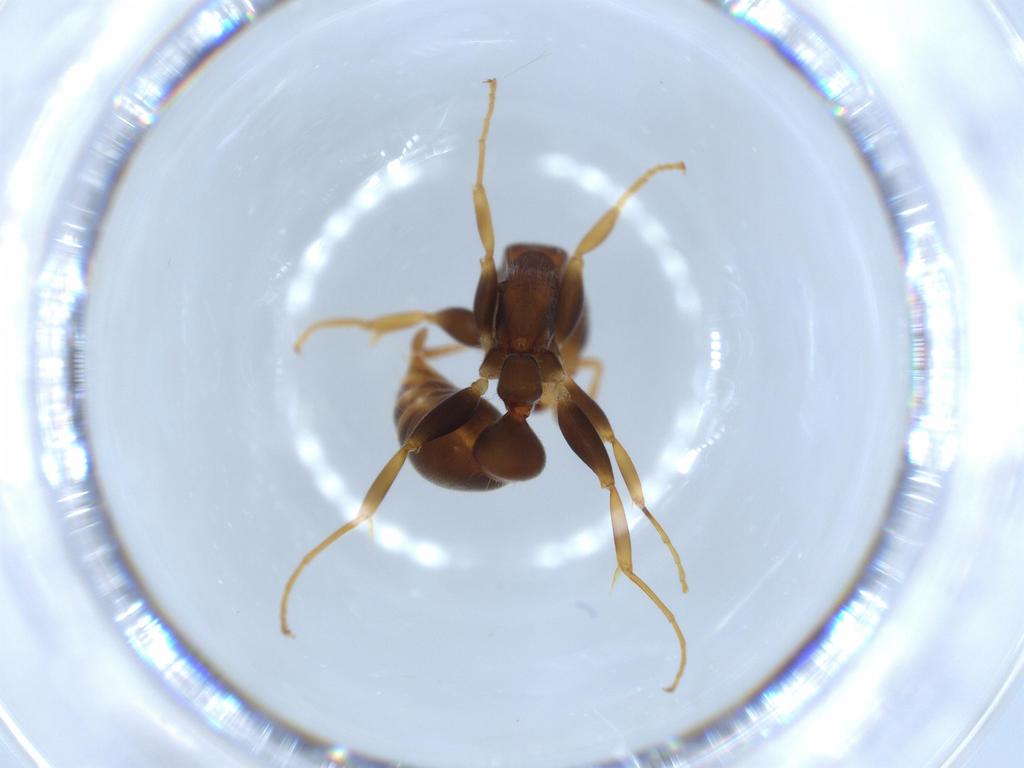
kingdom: Animalia
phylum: Arthropoda
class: Insecta
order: Hymenoptera
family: Formicidae
